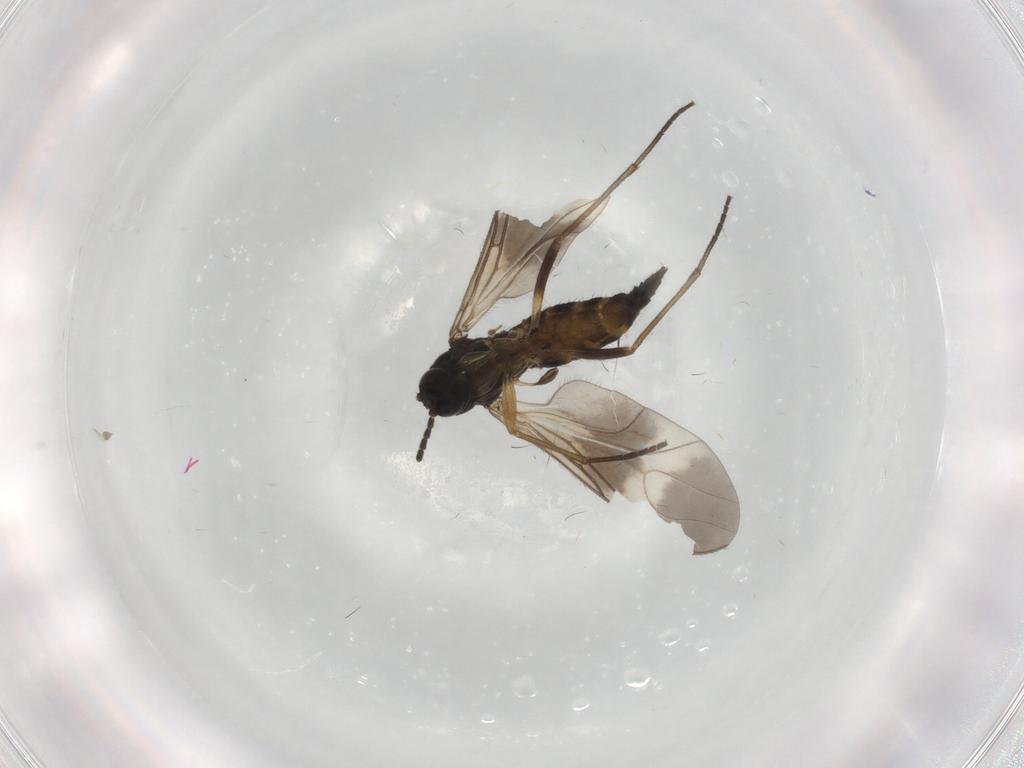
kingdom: Animalia
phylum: Arthropoda
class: Insecta
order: Diptera
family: Sciaridae
